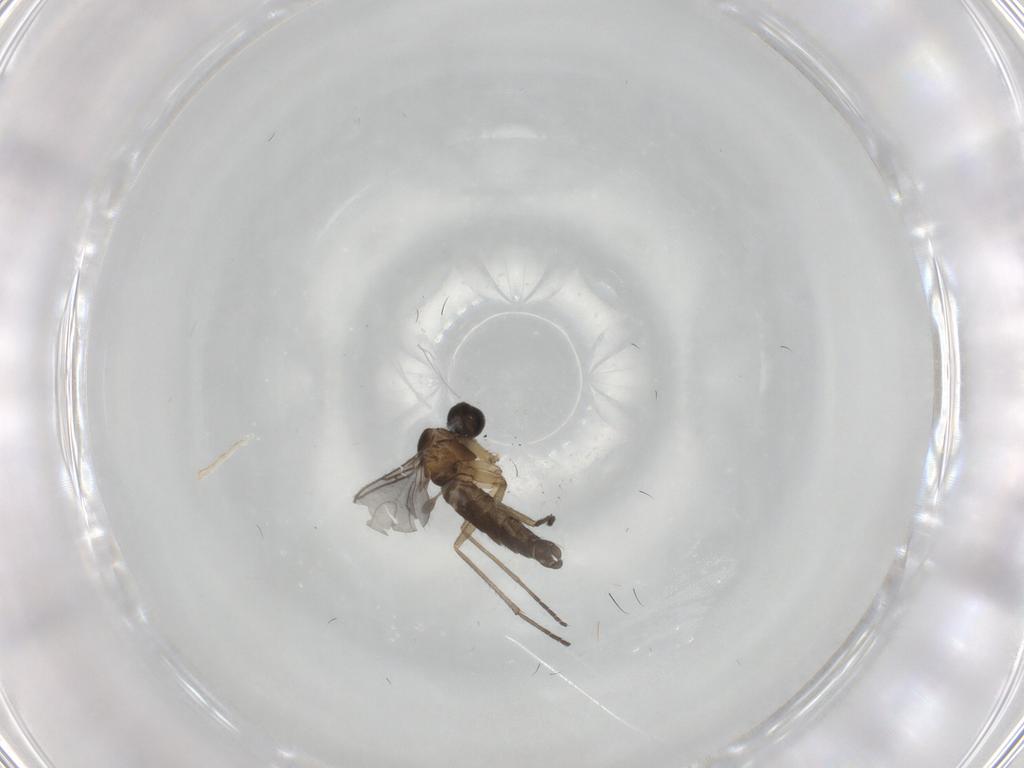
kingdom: Animalia
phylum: Arthropoda
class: Insecta
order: Diptera
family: Sciaridae
